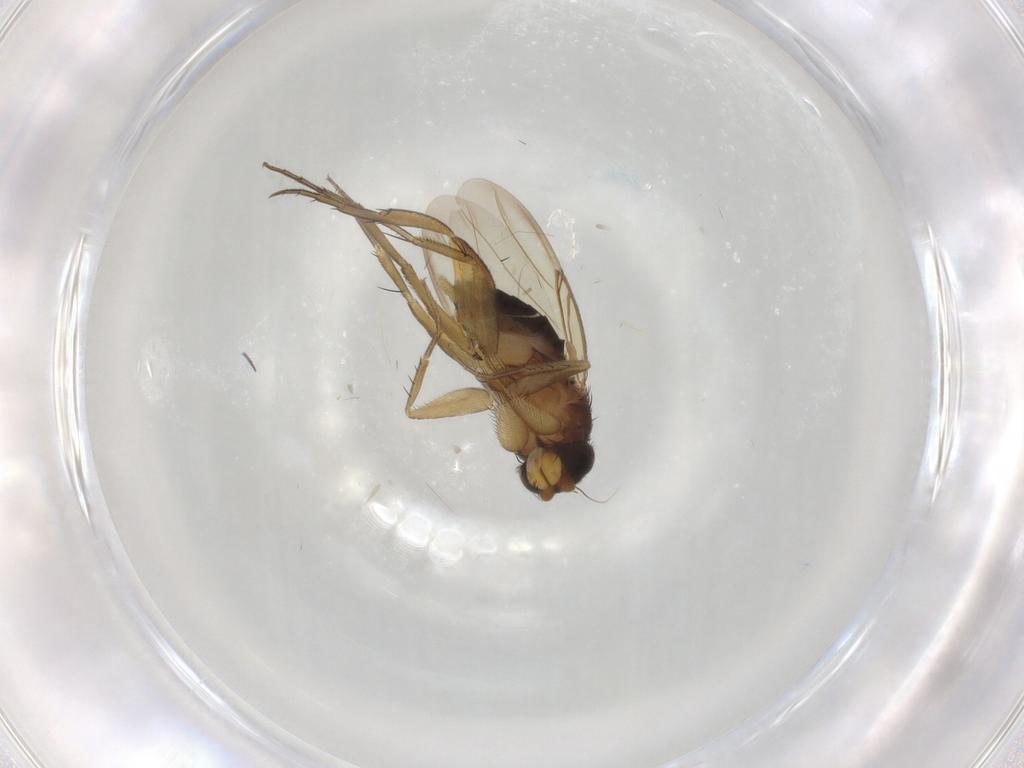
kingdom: Animalia
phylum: Arthropoda
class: Insecta
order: Diptera
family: Phoridae
